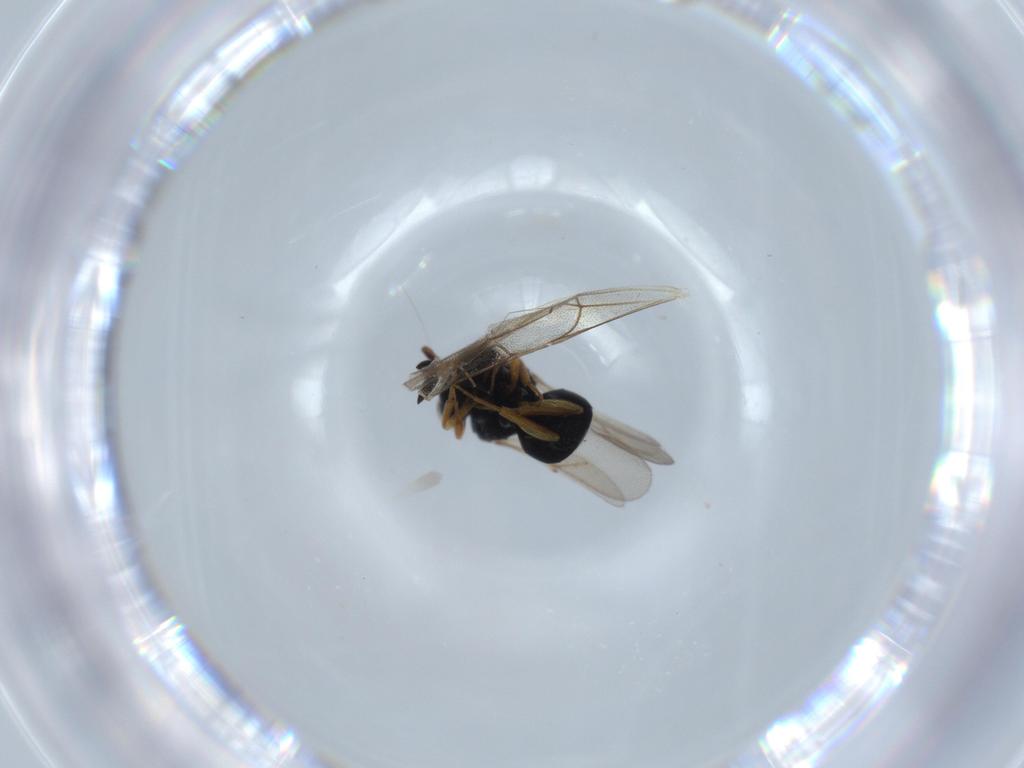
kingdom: Animalia
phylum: Arthropoda
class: Insecta
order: Hymenoptera
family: Scelionidae
